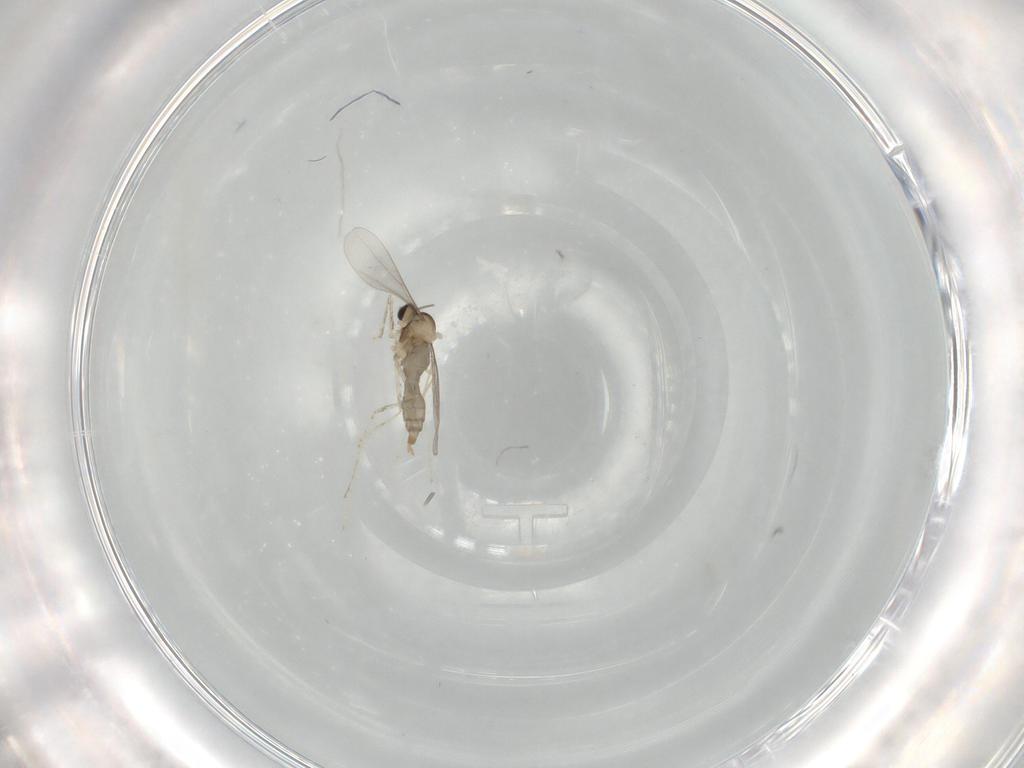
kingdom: Animalia
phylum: Arthropoda
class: Insecta
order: Diptera
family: Cecidomyiidae
